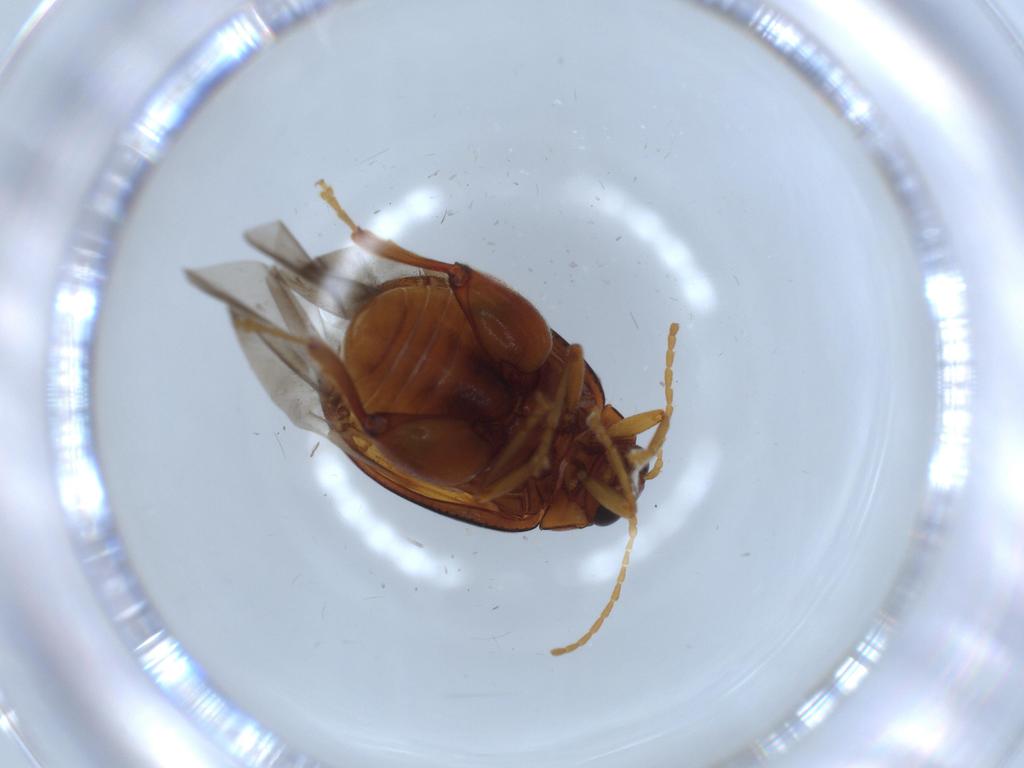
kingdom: Animalia
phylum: Arthropoda
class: Insecta
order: Diptera
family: Dolichopodidae
